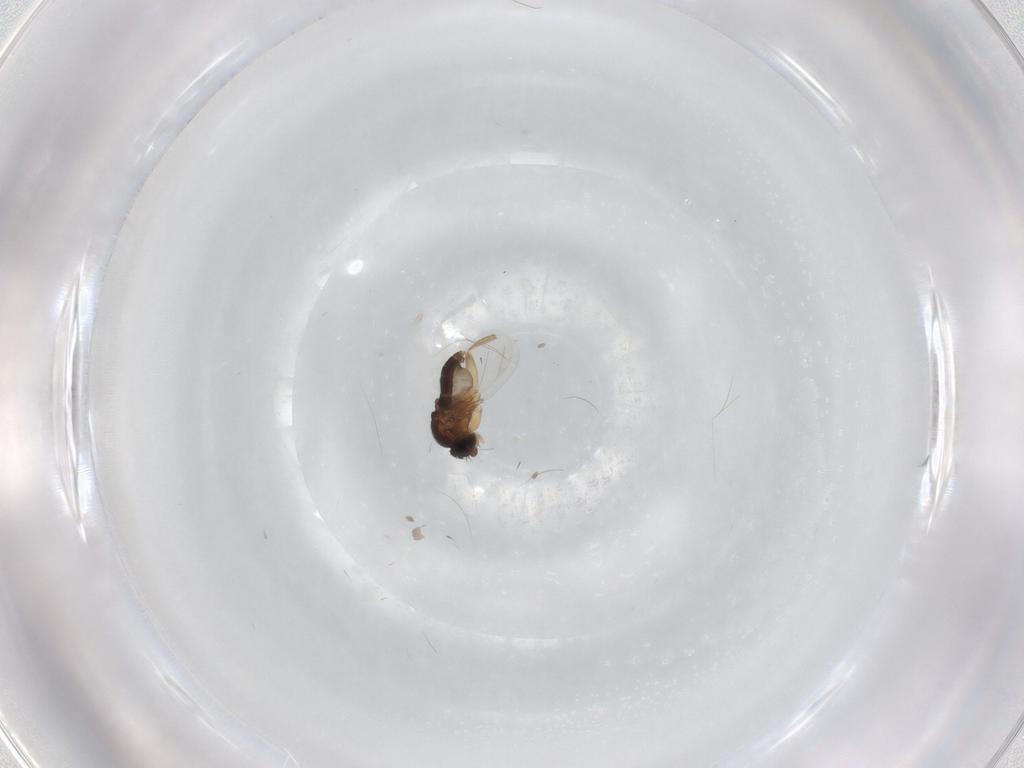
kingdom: Animalia
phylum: Arthropoda
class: Insecta
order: Diptera
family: Phoridae
